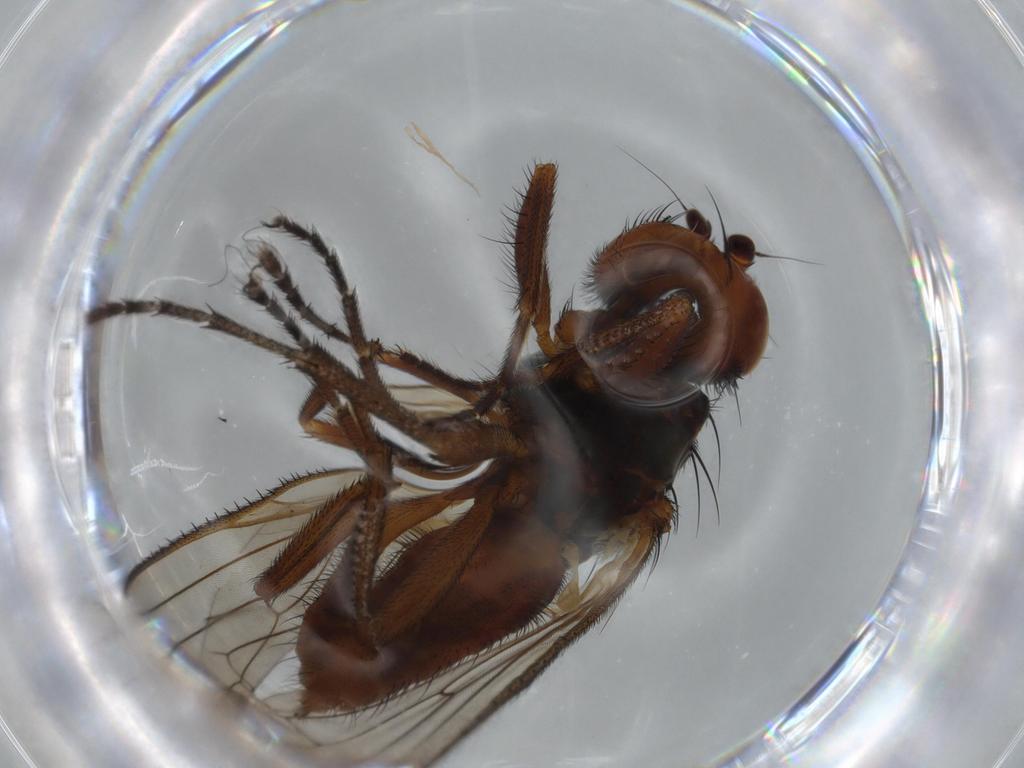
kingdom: Animalia
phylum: Arthropoda
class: Insecta
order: Diptera
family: Heleomyzidae
